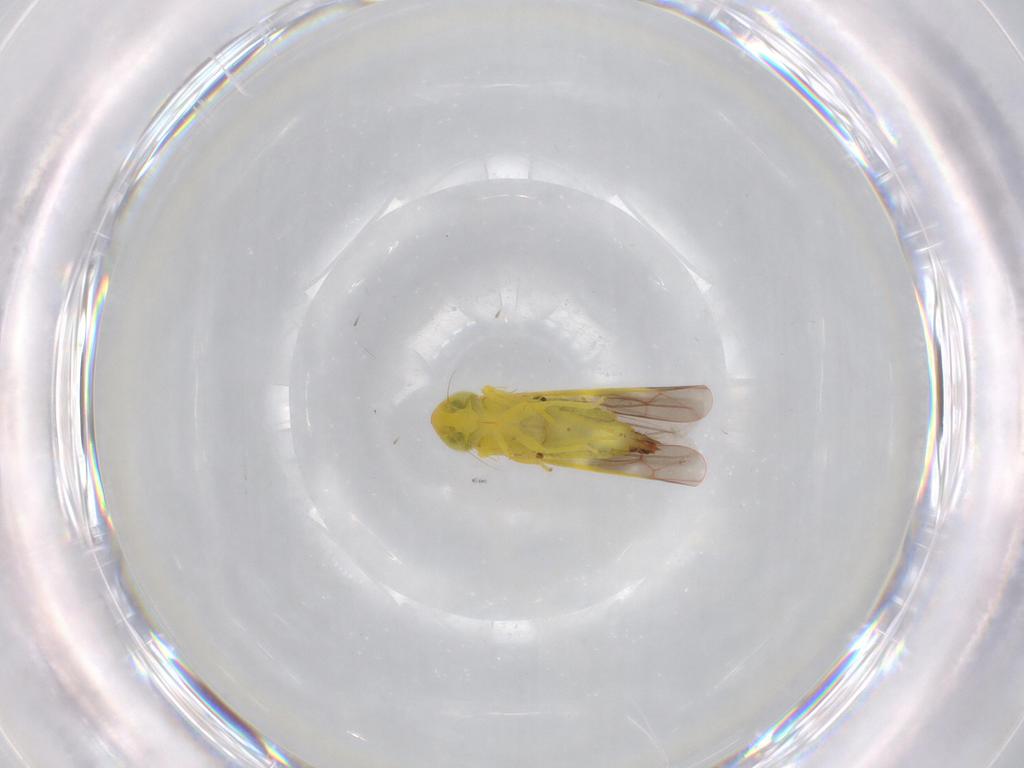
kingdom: Animalia
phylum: Arthropoda
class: Insecta
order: Hemiptera
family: Cicadellidae
